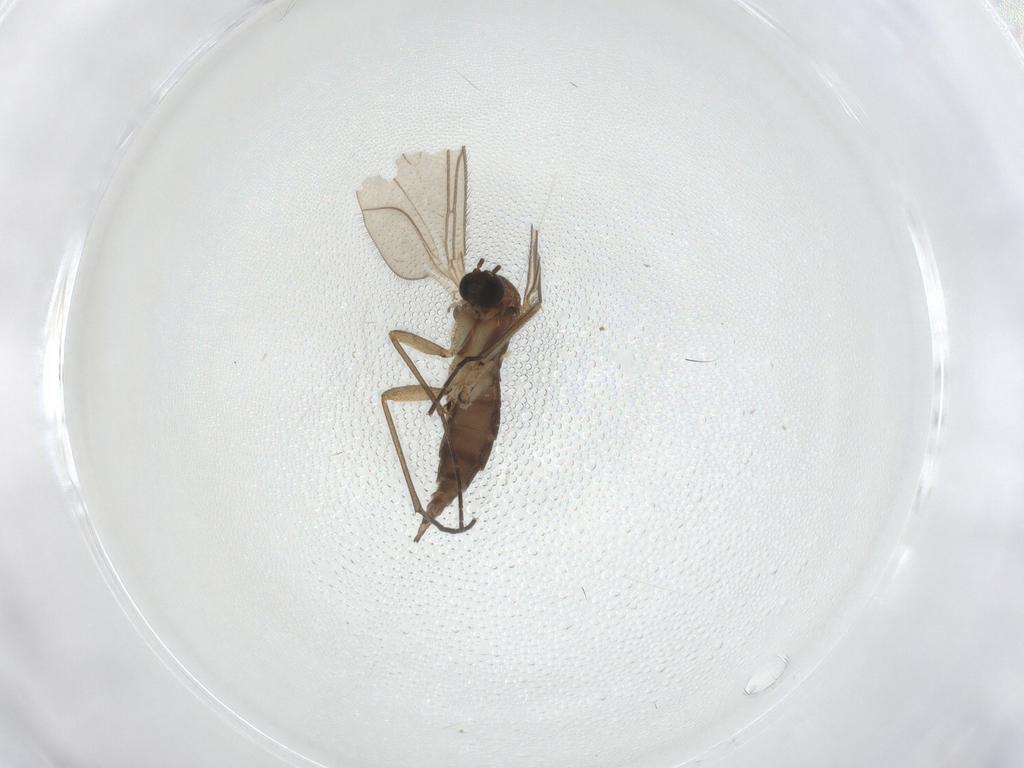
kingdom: Animalia
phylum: Arthropoda
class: Insecta
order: Diptera
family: Sciaridae
